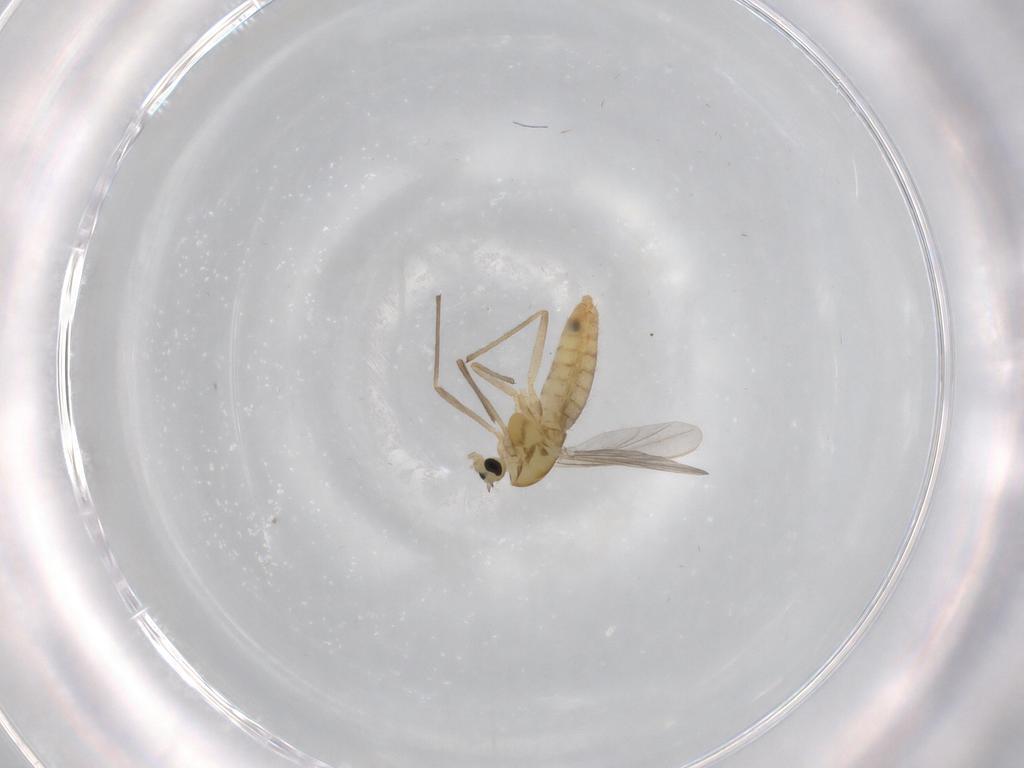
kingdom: Animalia
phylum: Arthropoda
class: Insecta
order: Diptera
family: Chironomidae
